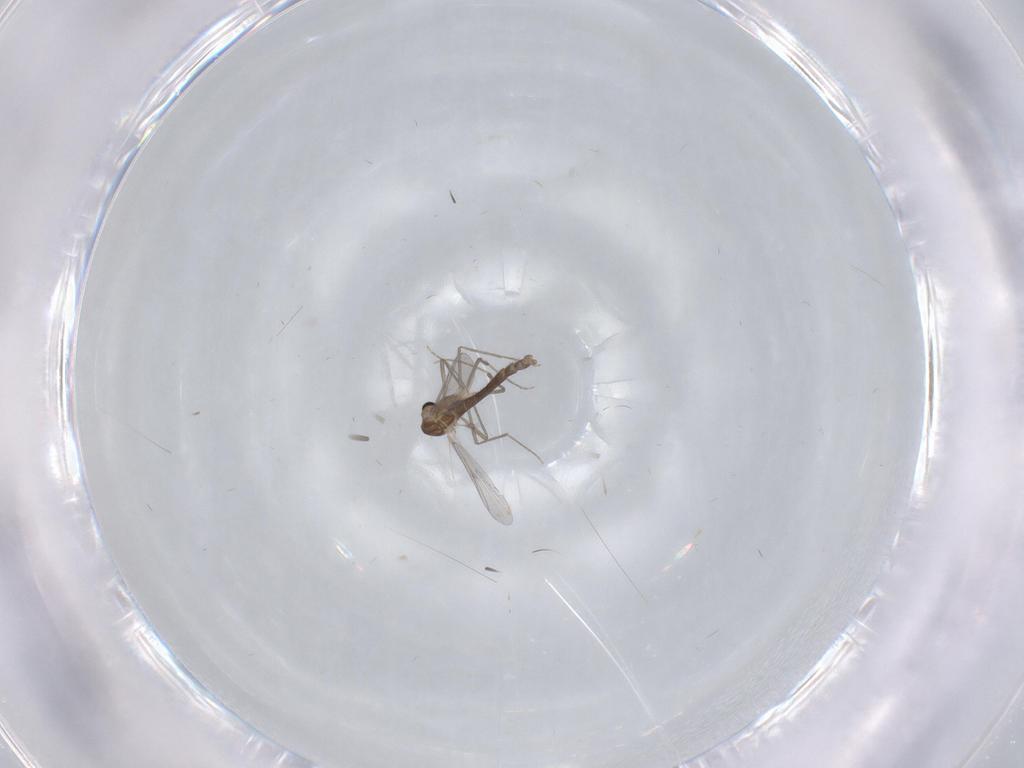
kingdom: Animalia
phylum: Arthropoda
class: Insecta
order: Diptera
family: Chironomidae
